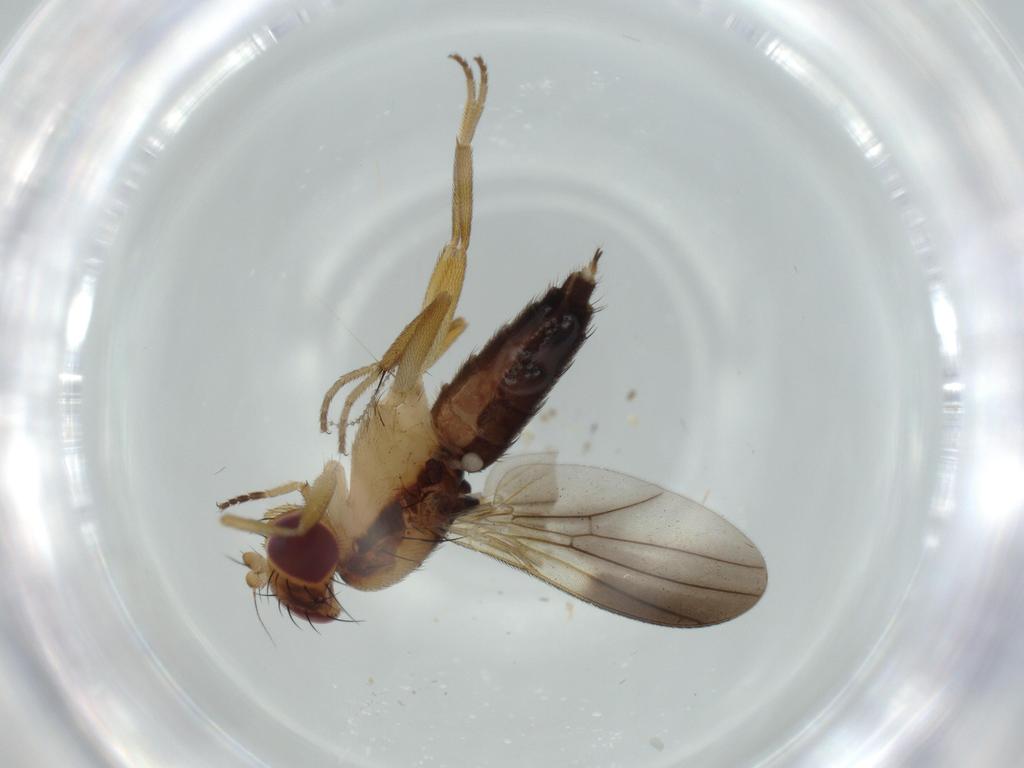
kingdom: Animalia
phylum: Arthropoda
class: Insecta
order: Diptera
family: Clusiidae
